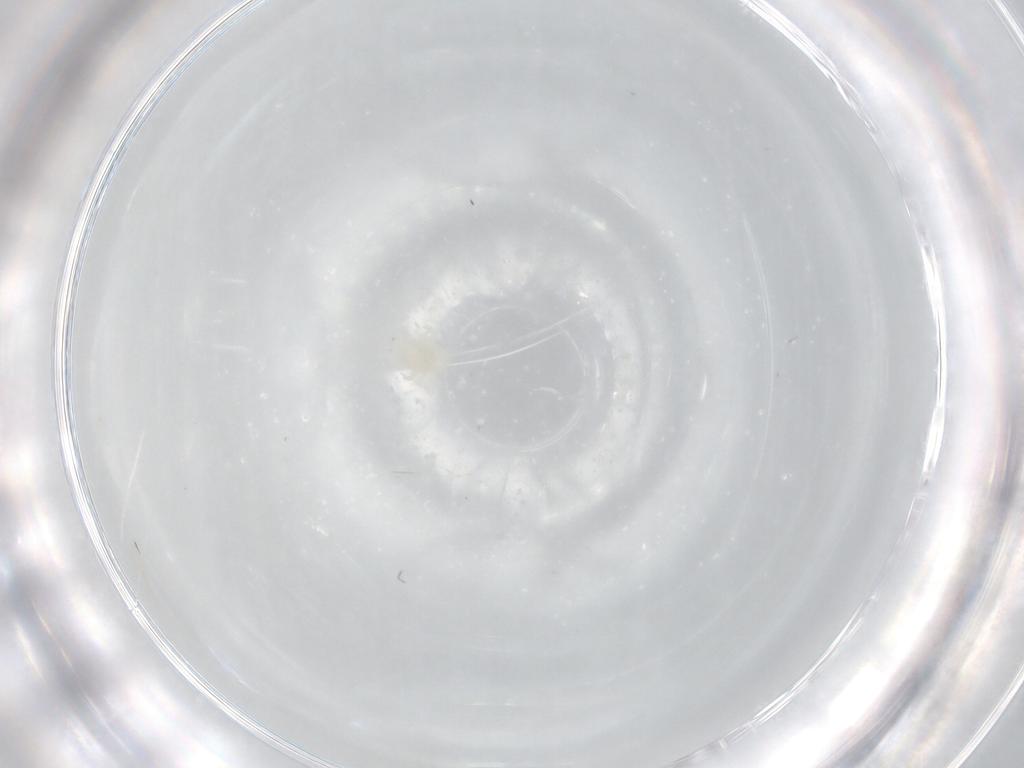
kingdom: Animalia
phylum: Arthropoda
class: Arachnida
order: Mesostigmata
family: Melicharidae
